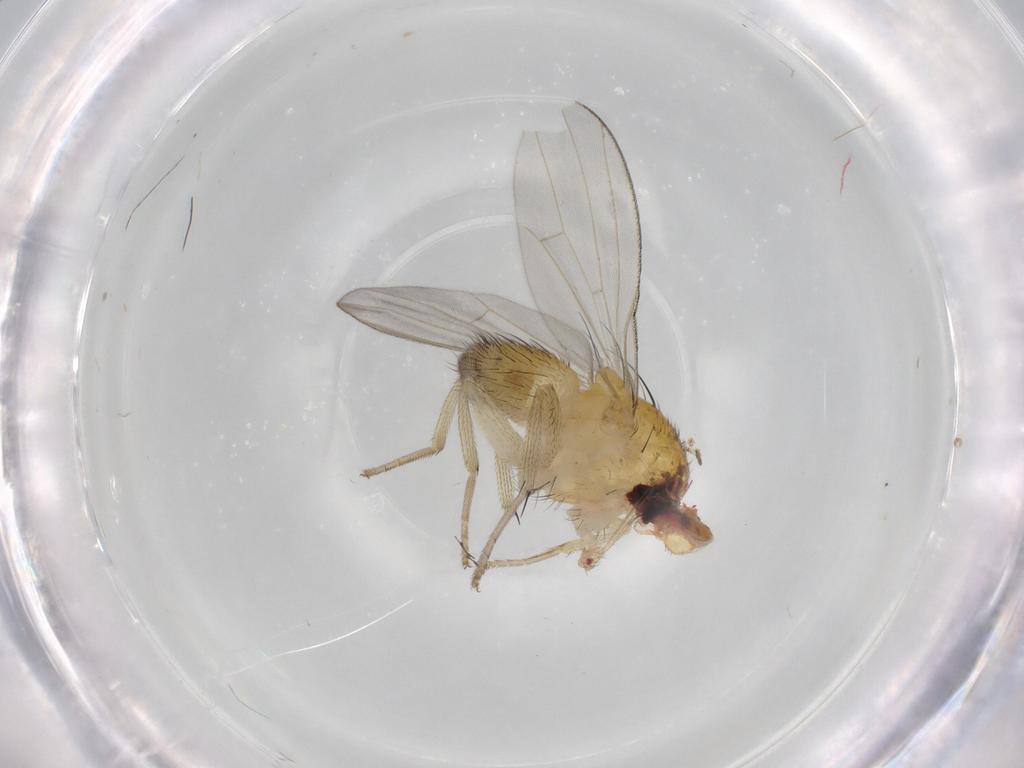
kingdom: Animalia
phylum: Arthropoda
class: Insecta
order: Diptera
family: Lauxaniidae
